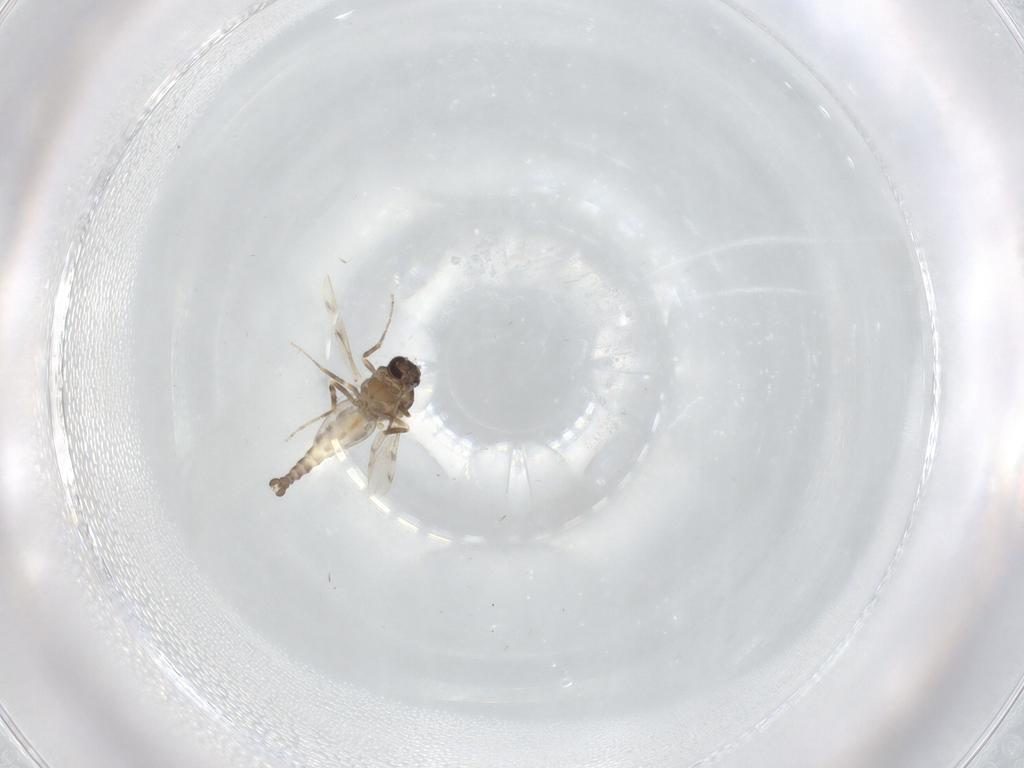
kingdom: Animalia
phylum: Arthropoda
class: Insecta
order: Diptera
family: Ceratopogonidae
